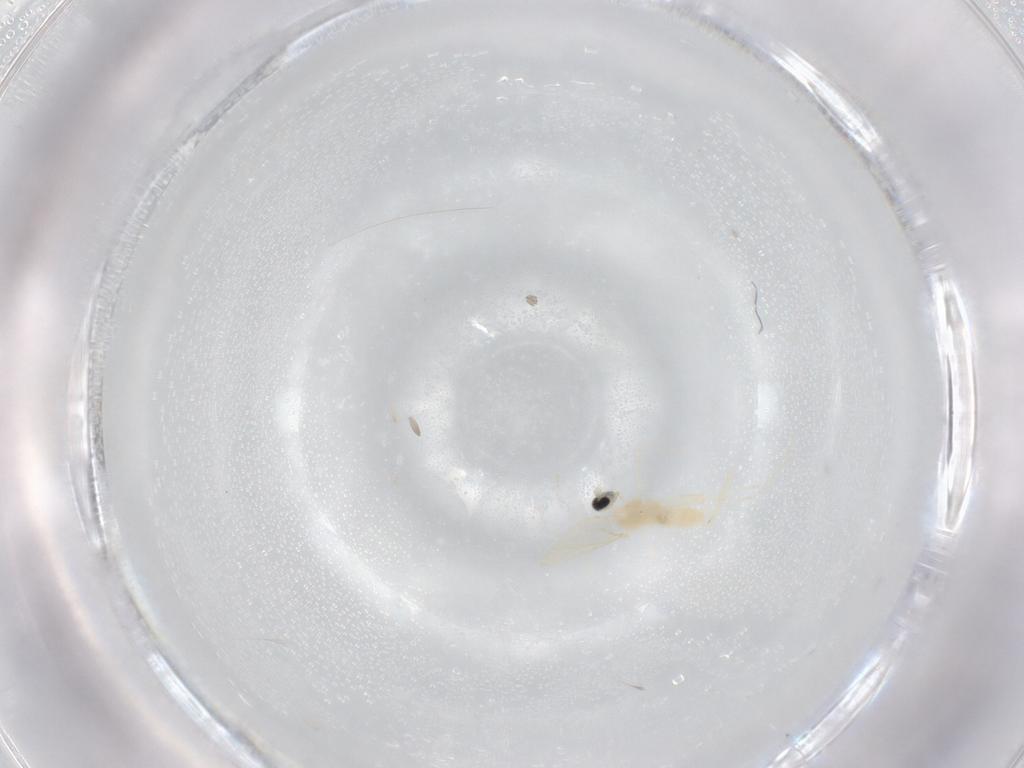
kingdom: Animalia
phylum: Arthropoda
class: Insecta
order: Diptera
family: Cecidomyiidae
